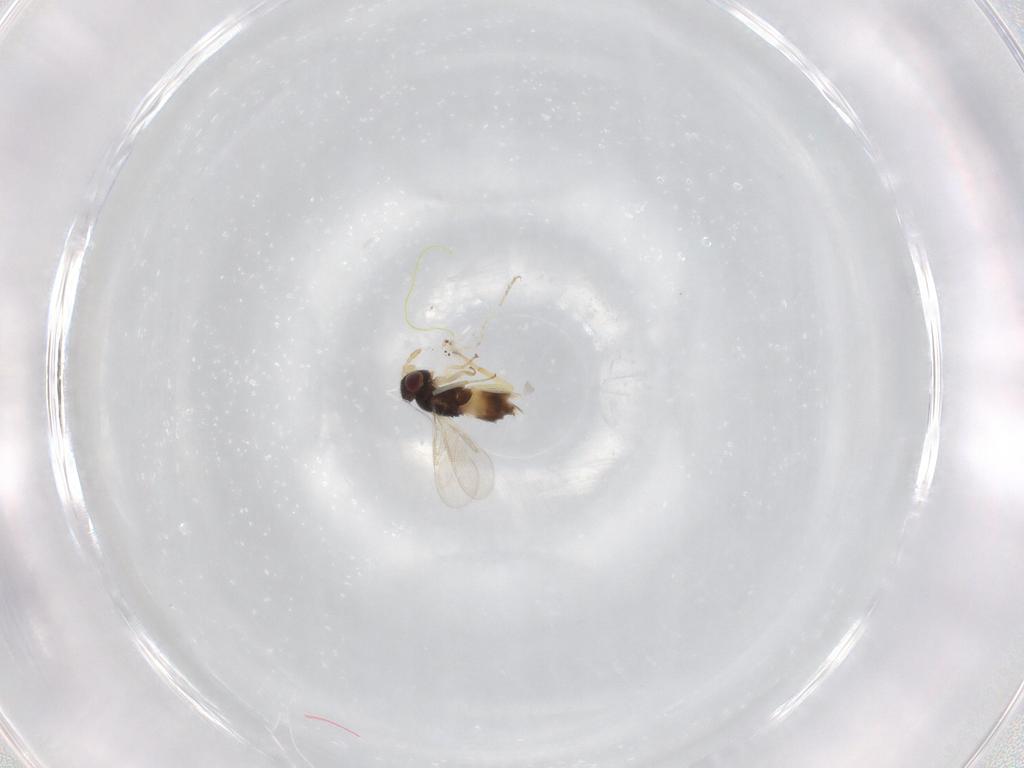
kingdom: Animalia
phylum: Arthropoda
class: Insecta
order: Hymenoptera
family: Aphelinidae
